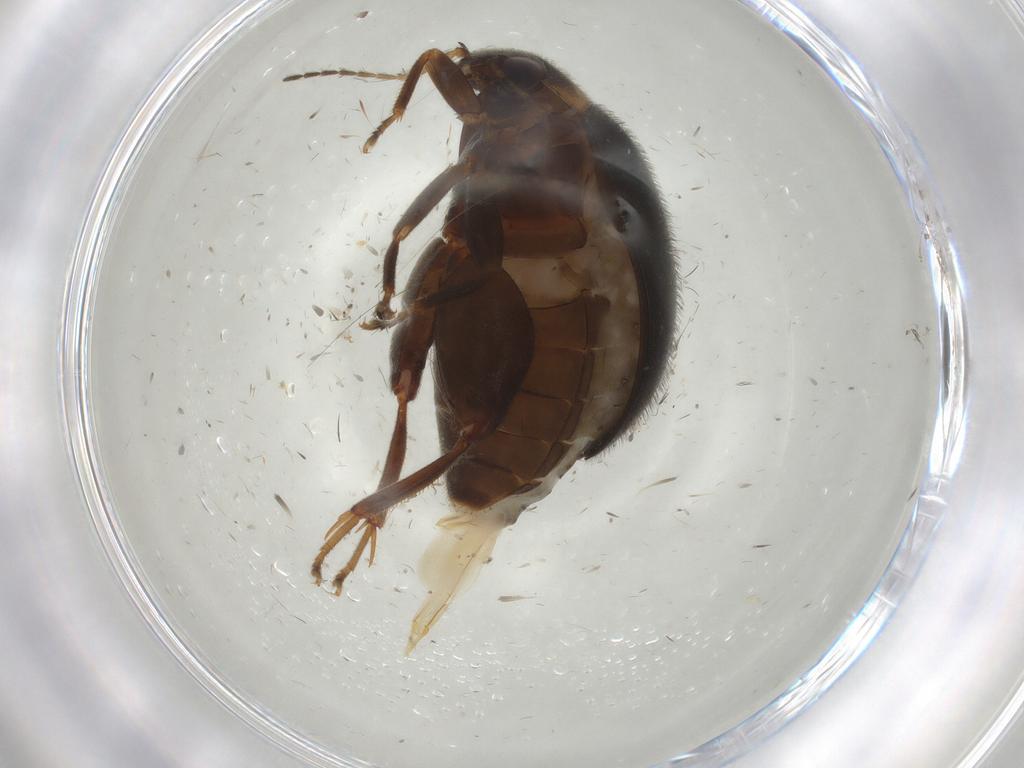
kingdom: Animalia
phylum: Arthropoda
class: Insecta
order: Coleoptera
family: Scirtidae
